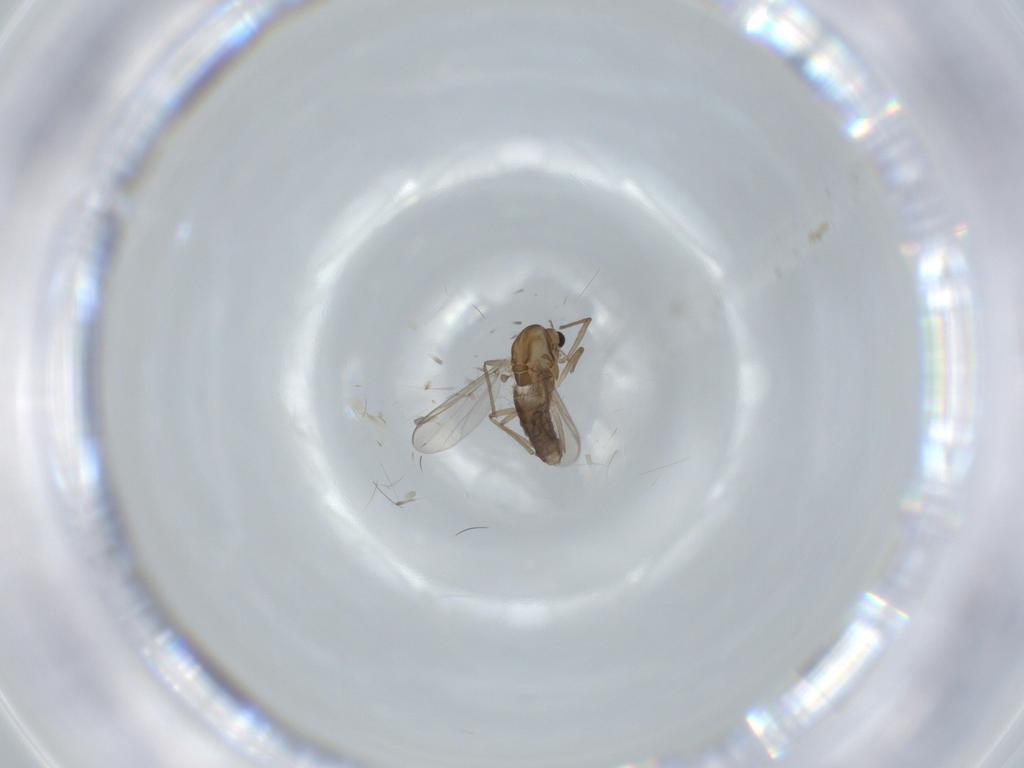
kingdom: Animalia
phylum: Arthropoda
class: Insecta
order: Diptera
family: Chironomidae
